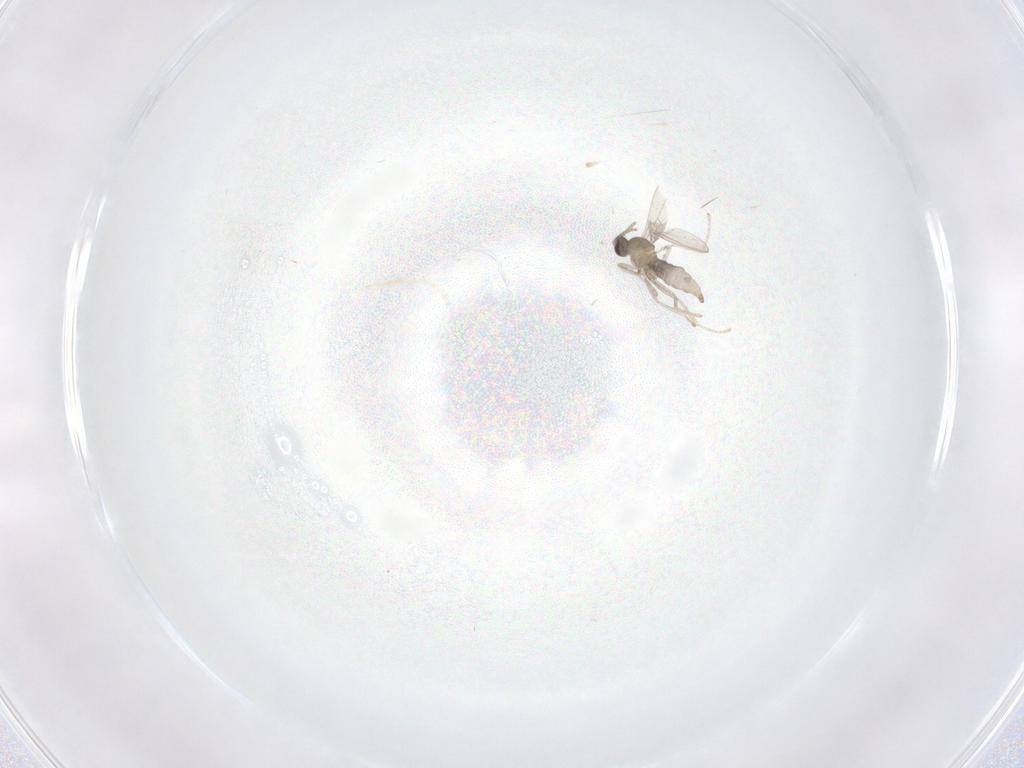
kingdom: Animalia
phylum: Arthropoda
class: Insecta
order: Diptera
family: Cecidomyiidae
